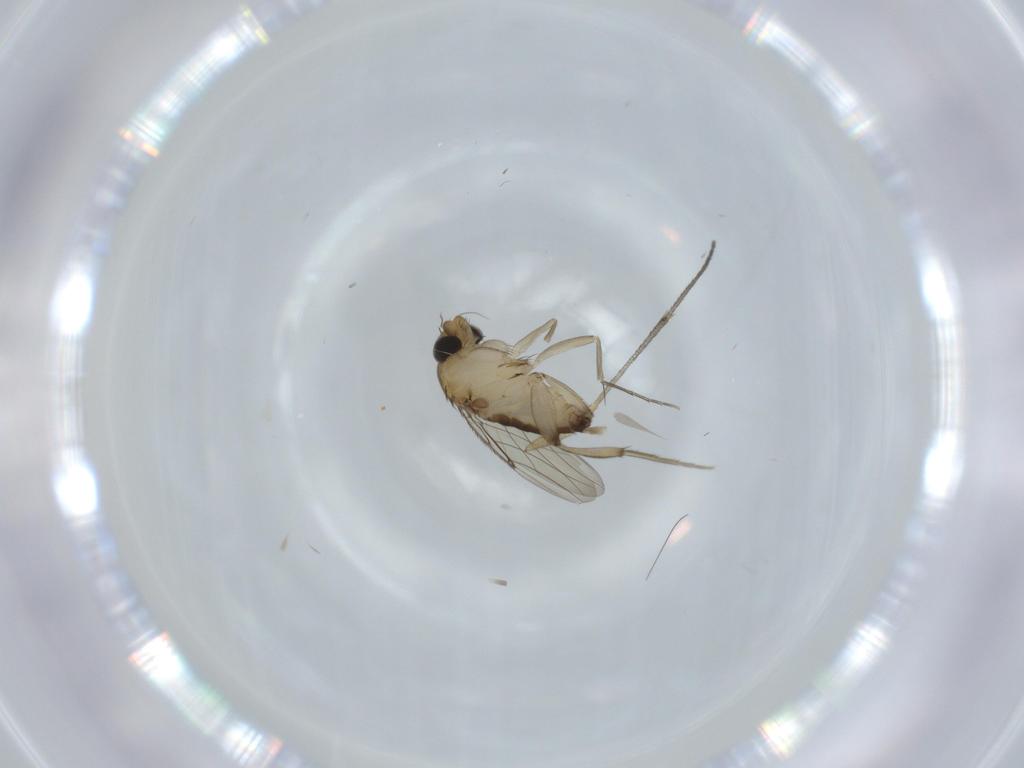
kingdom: Animalia
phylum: Arthropoda
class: Insecta
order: Diptera
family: Phoridae
